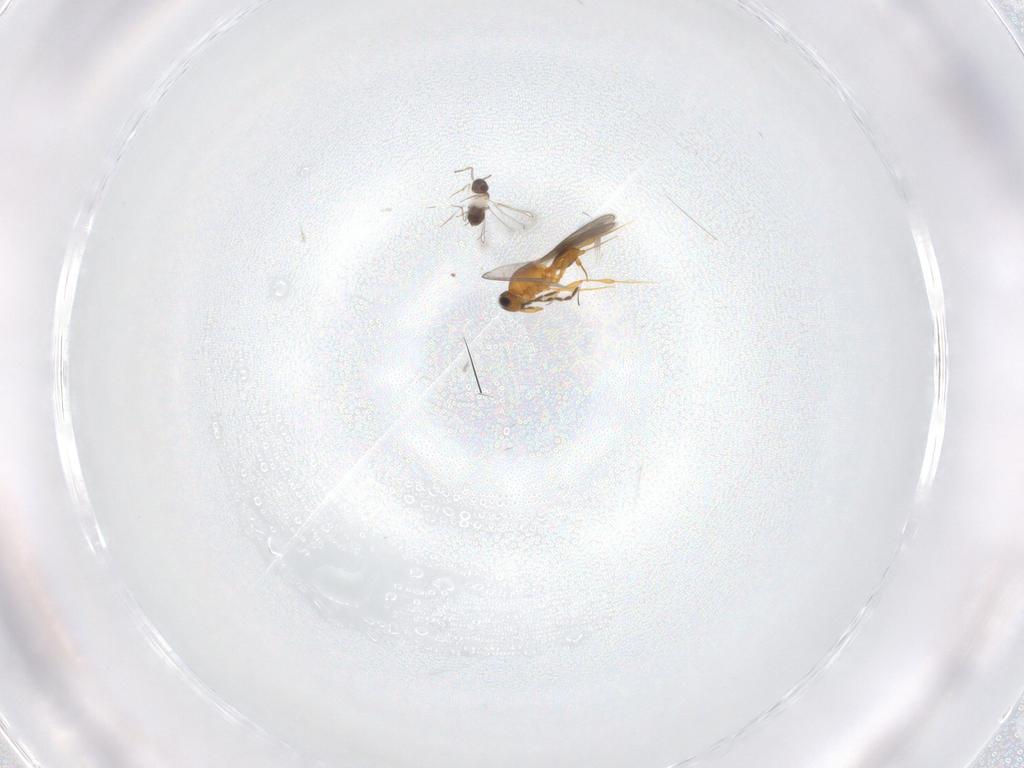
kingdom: Animalia
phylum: Arthropoda
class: Insecta
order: Hymenoptera
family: Platygastridae
